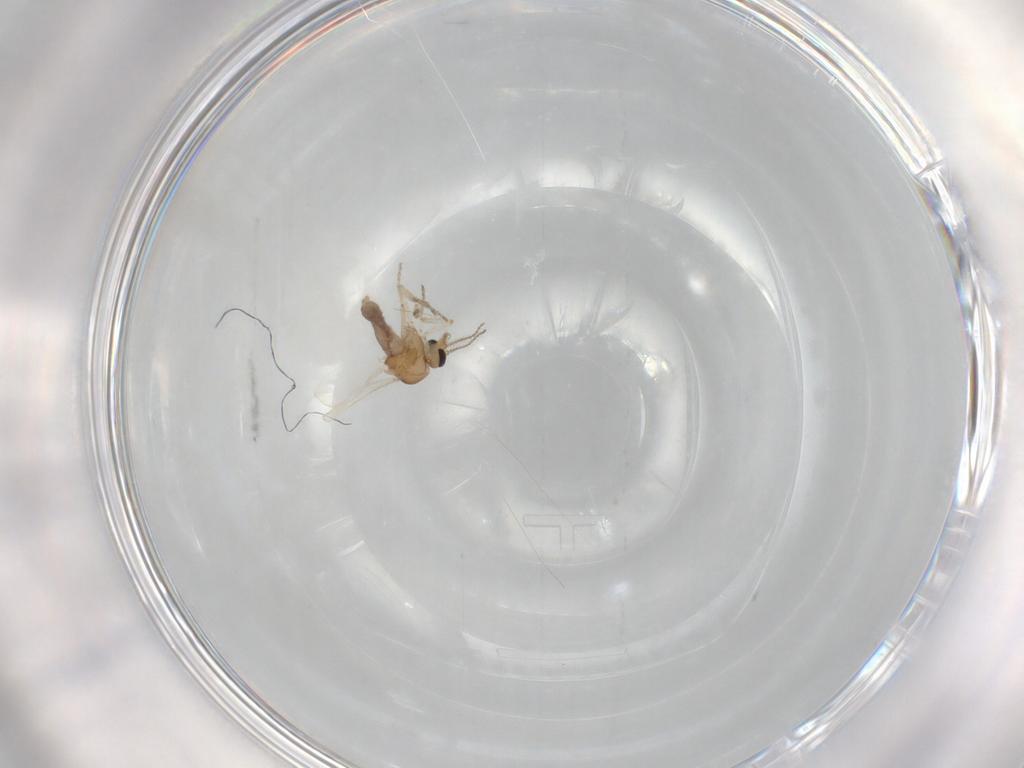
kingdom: Animalia
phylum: Arthropoda
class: Insecta
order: Diptera
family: Ceratopogonidae
